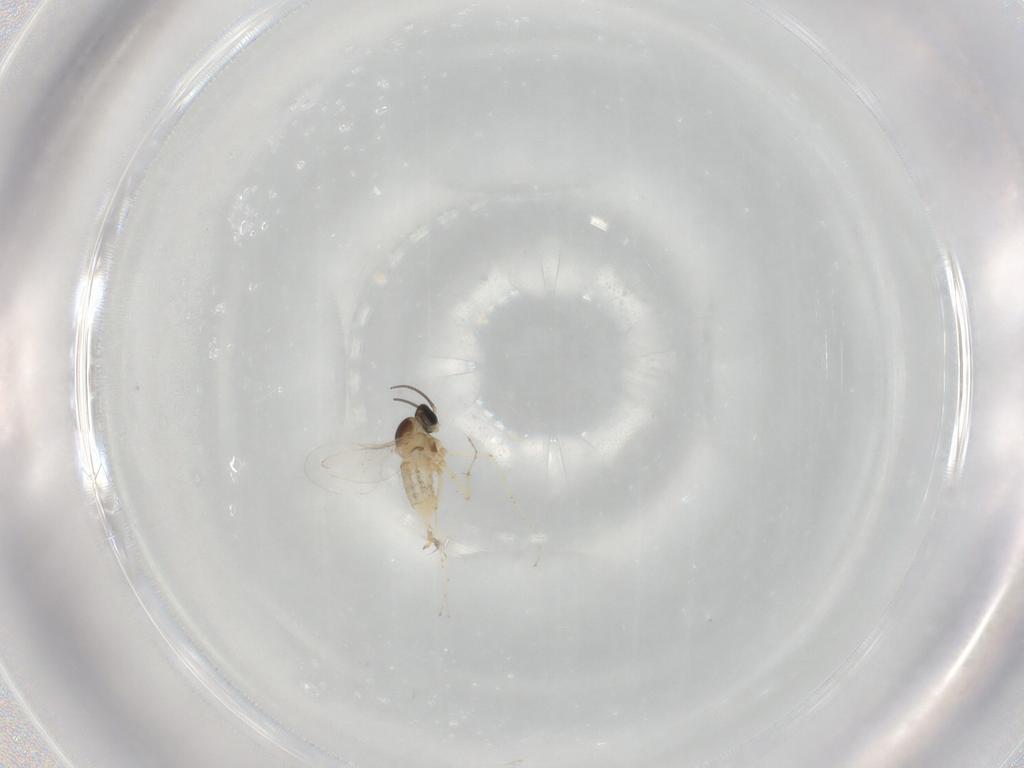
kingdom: Animalia
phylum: Arthropoda
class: Insecta
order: Diptera
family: Cecidomyiidae
